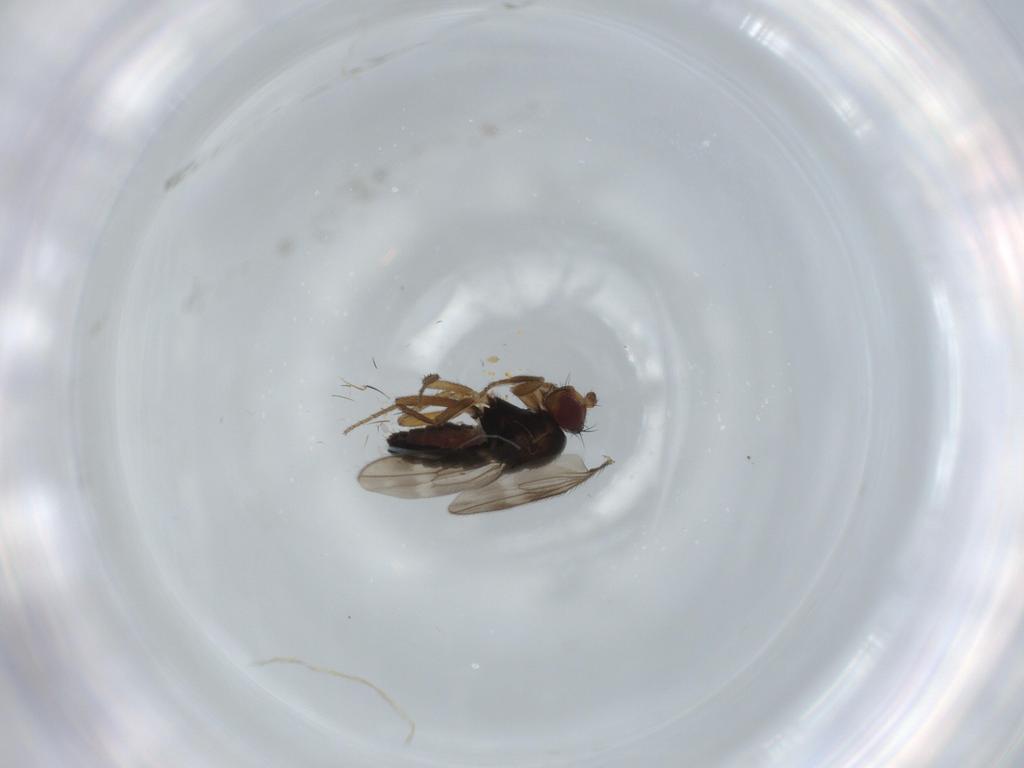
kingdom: Animalia
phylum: Arthropoda
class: Insecta
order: Diptera
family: Sphaeroceridae
